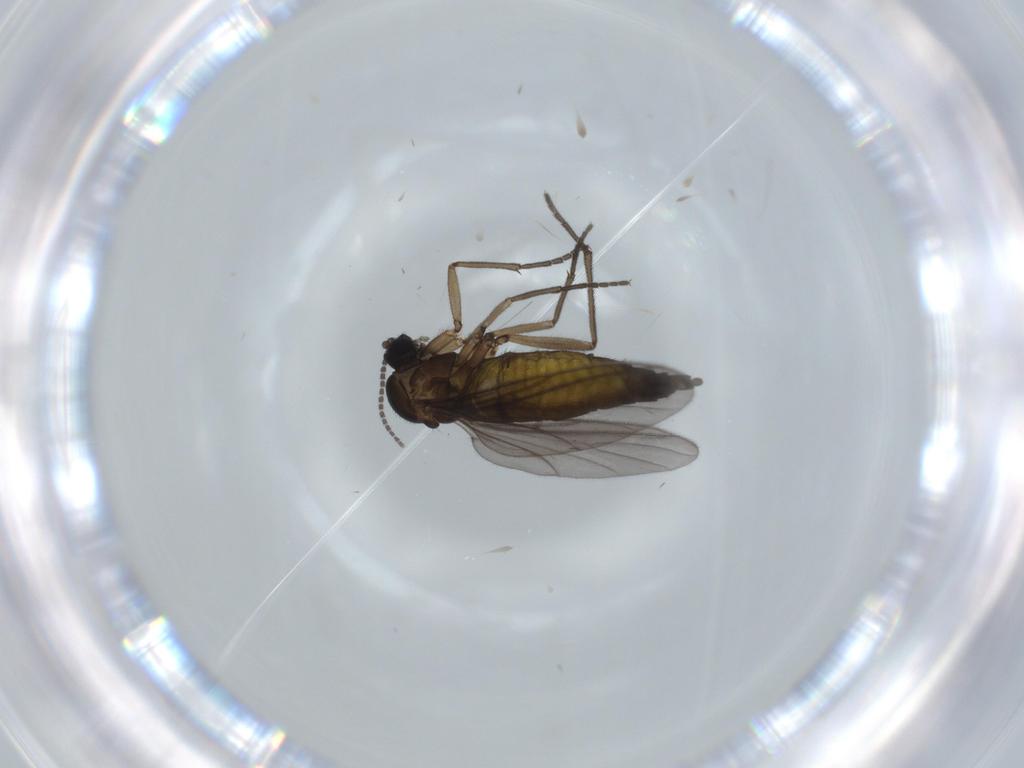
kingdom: Animalia
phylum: Arthropoda
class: Insecta
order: Diptera
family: Sciaridae
